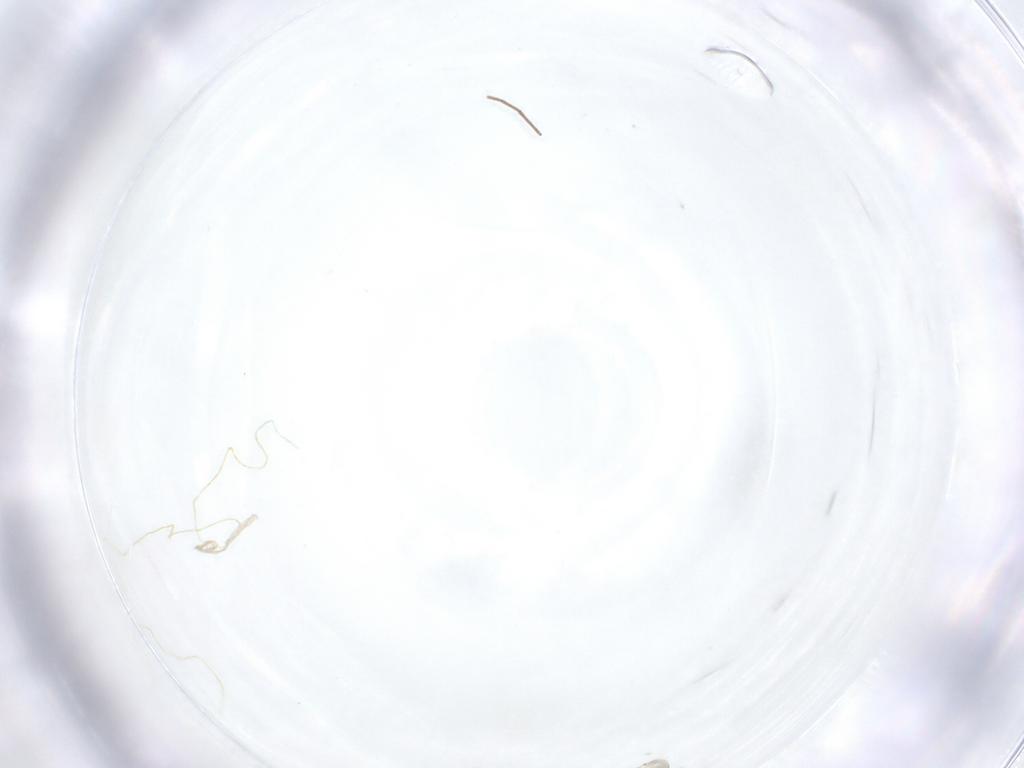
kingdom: Animalia
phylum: Arthropoda
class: Insecta
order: Diptera
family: Chironomidae
